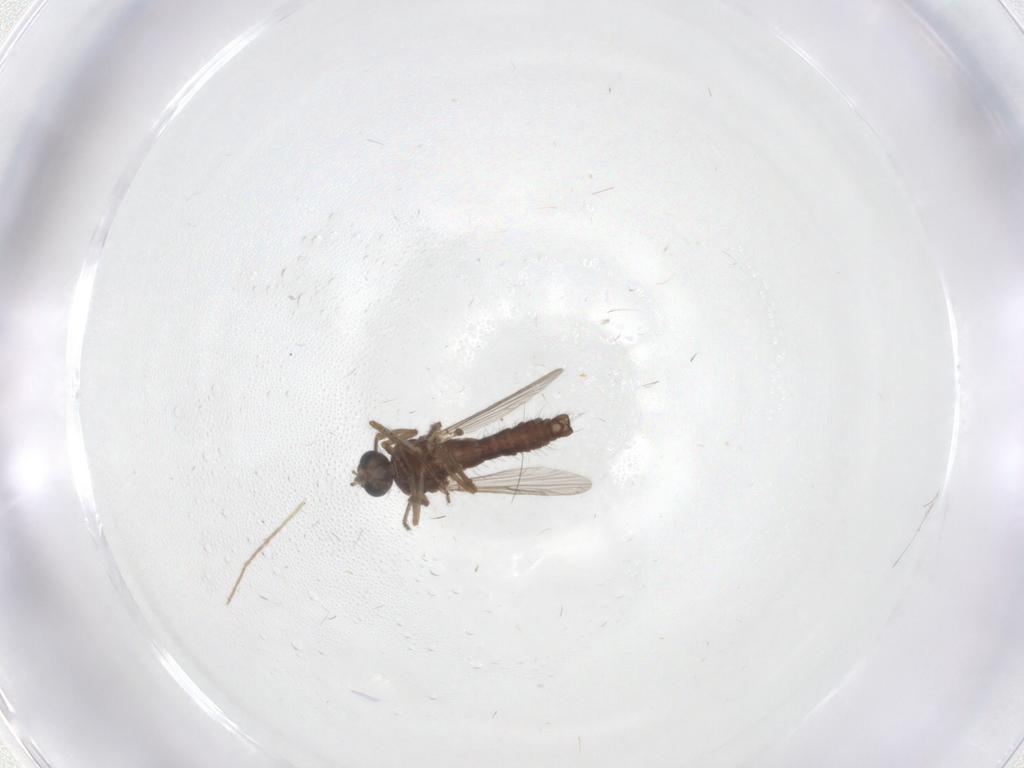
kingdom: Animalia
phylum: Arthropoda
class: Insecta
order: Diptera
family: Ceratopogonidae
